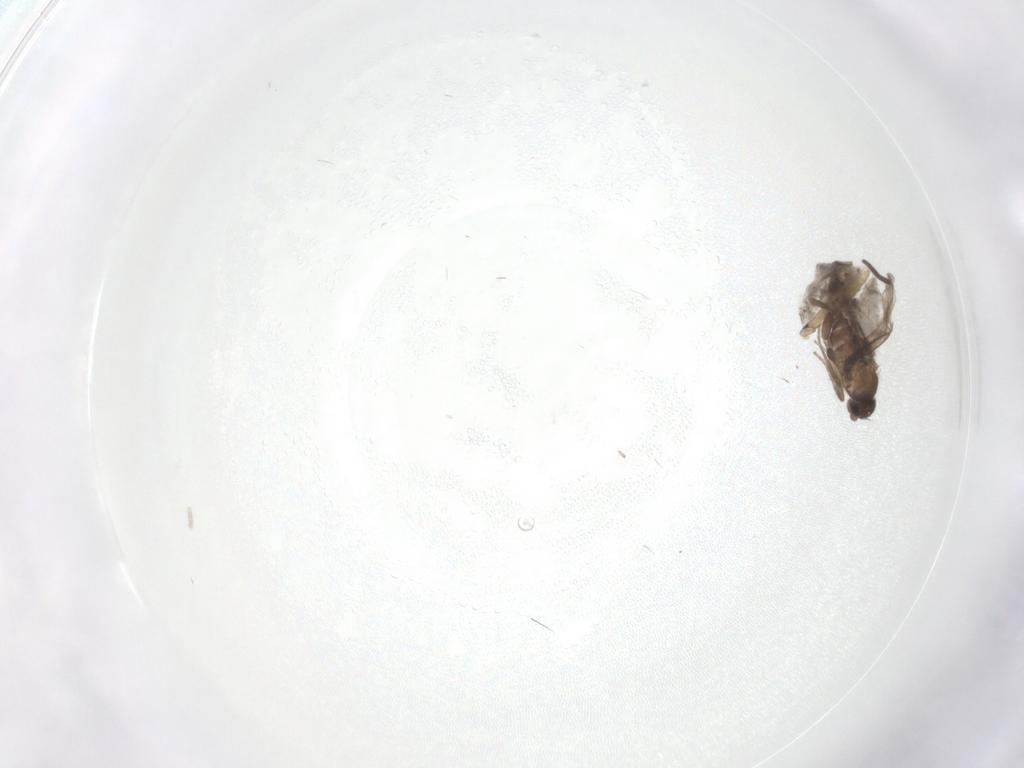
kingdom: Animalia
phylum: Arthropoda
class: Insecta
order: Diptera
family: Limoniidae
